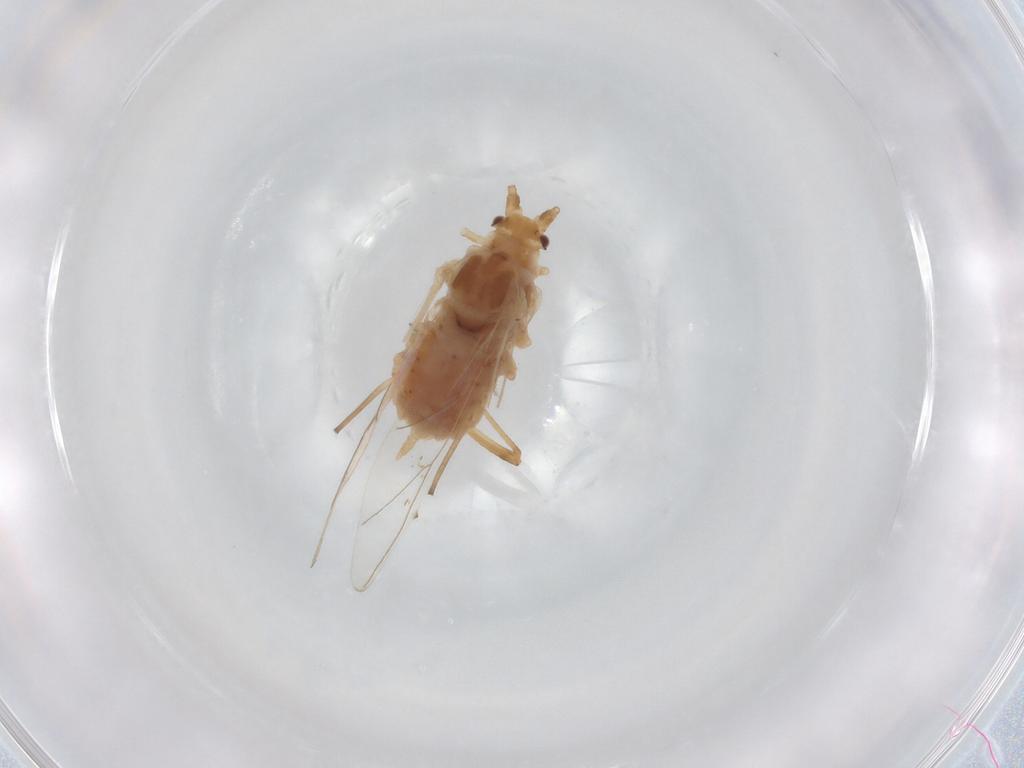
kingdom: Animalia
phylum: Arthropoda
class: Insecta
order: Hemiptera
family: Aphididae
